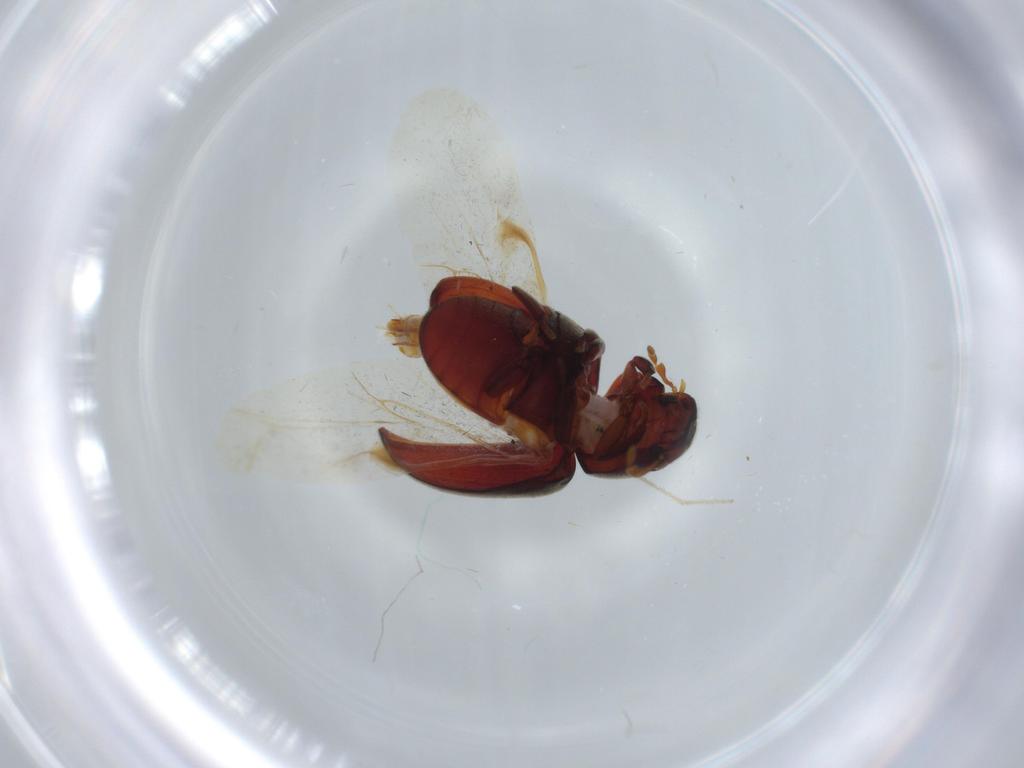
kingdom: Animalia
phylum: Arthropoda
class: Insecta
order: Coleoptera
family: Ptinidae
